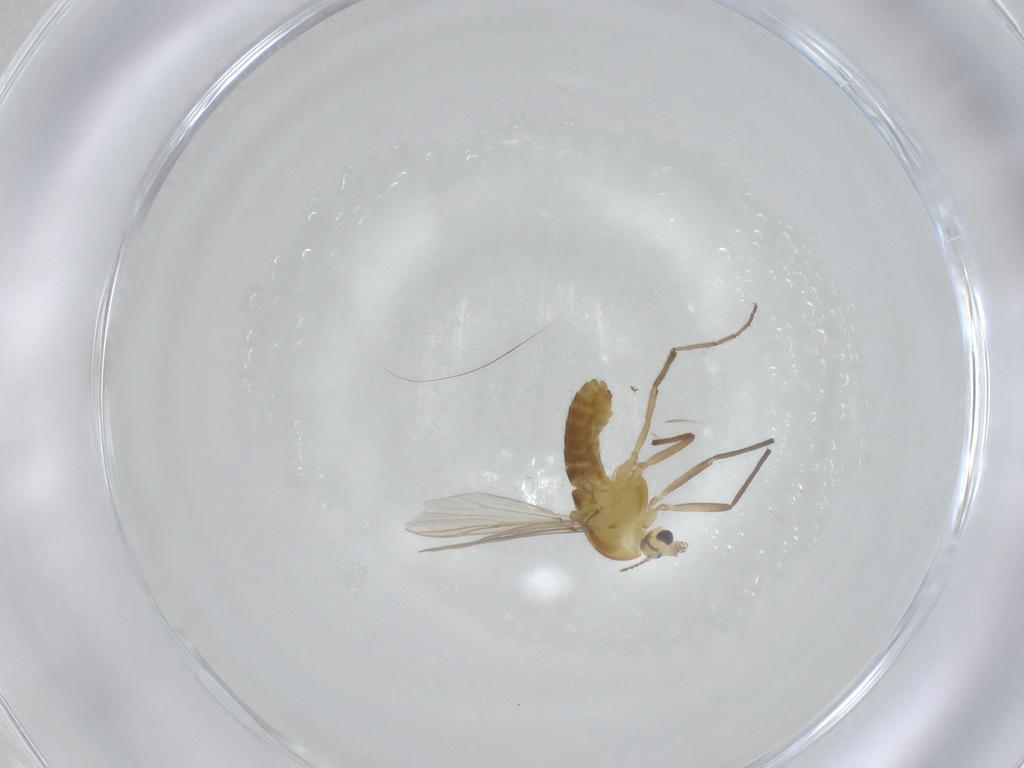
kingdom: Animalia
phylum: Arthropoda
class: Insecta
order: Diptera
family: Chironomidae
